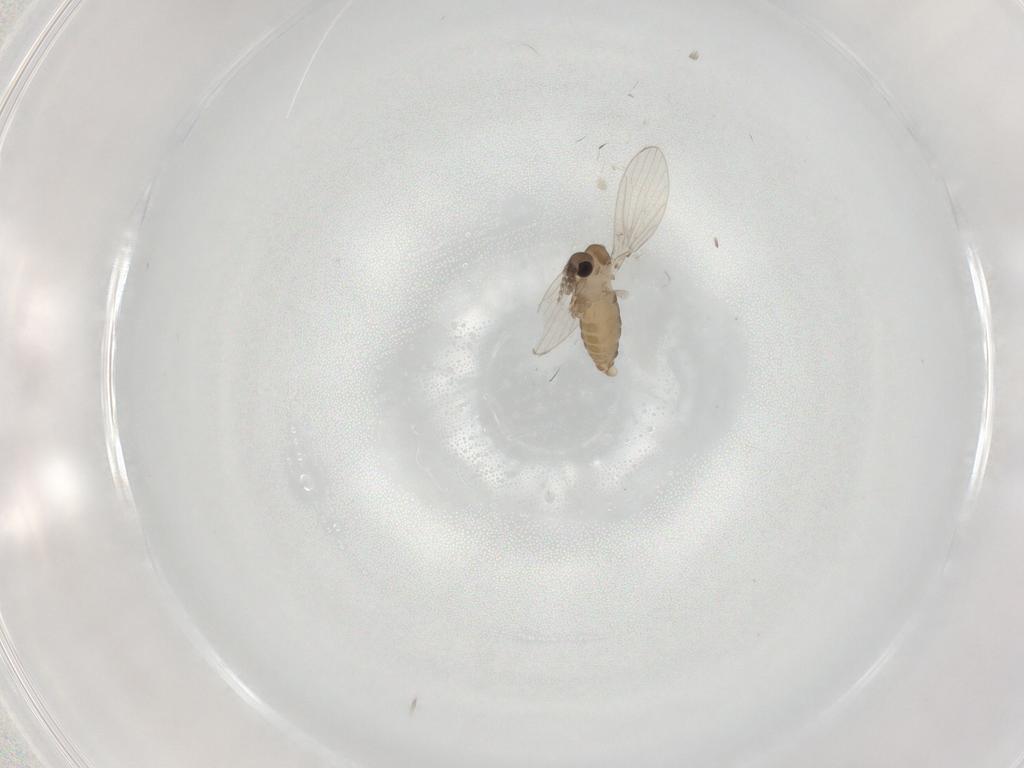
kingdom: Animalia
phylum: Arthropoda
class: Insecta
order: Diptera
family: Psychodidae
